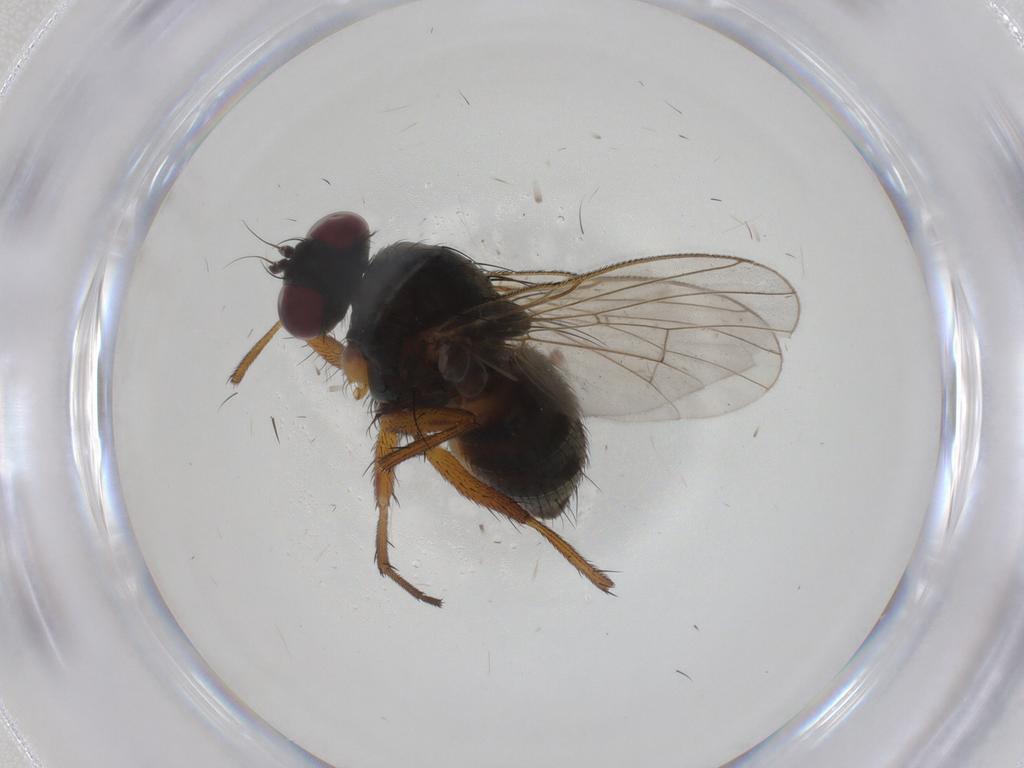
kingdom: Animalia
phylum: Arthropoda
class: Insecta
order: Diptera
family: Muscidae
